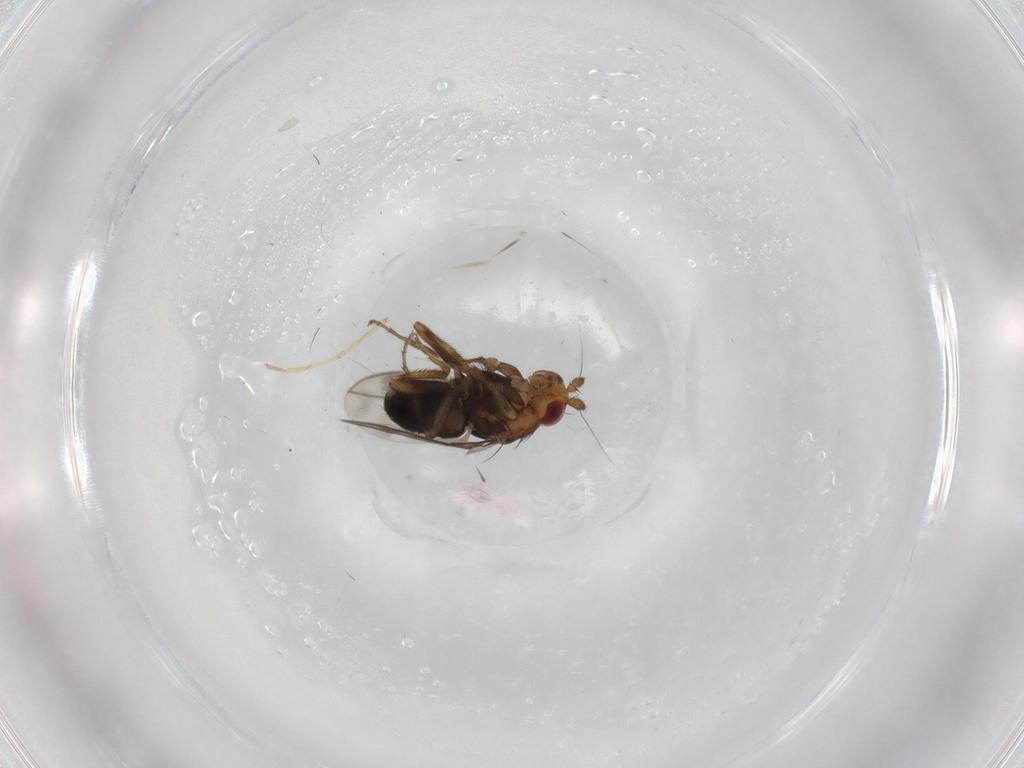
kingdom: Animalia
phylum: Arthropoda
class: Insecta
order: Diptera
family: Cecidomyiidae
